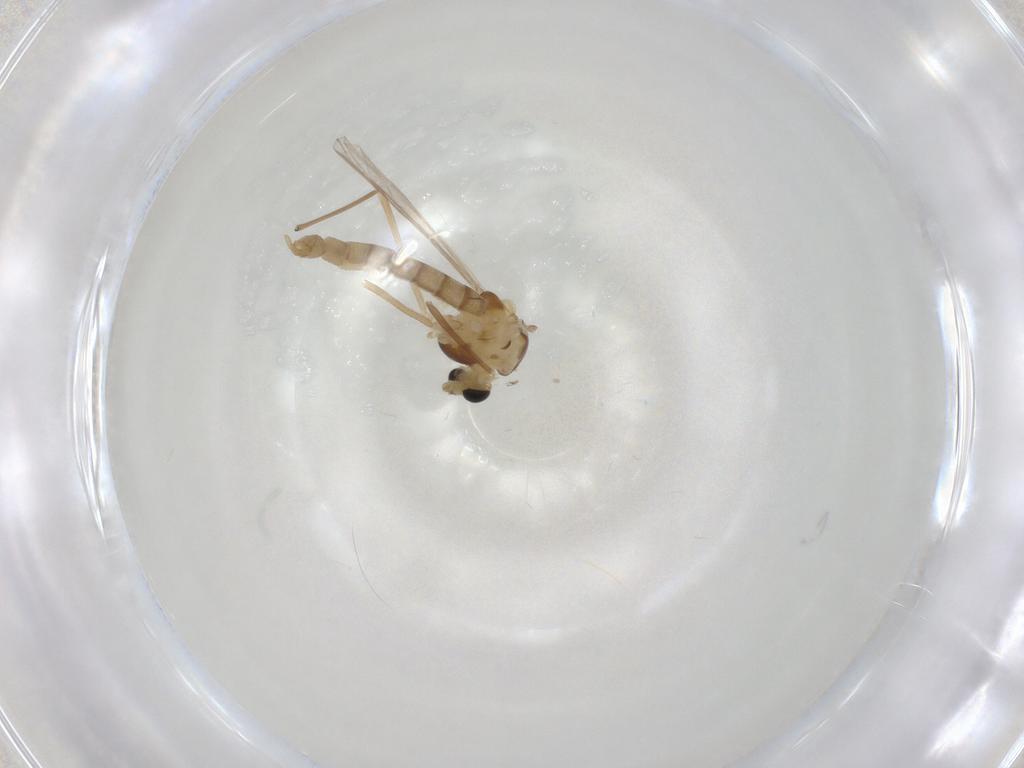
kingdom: Animalia
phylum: Arthropoda
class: Insecta
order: Diptera
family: Chironomidae
